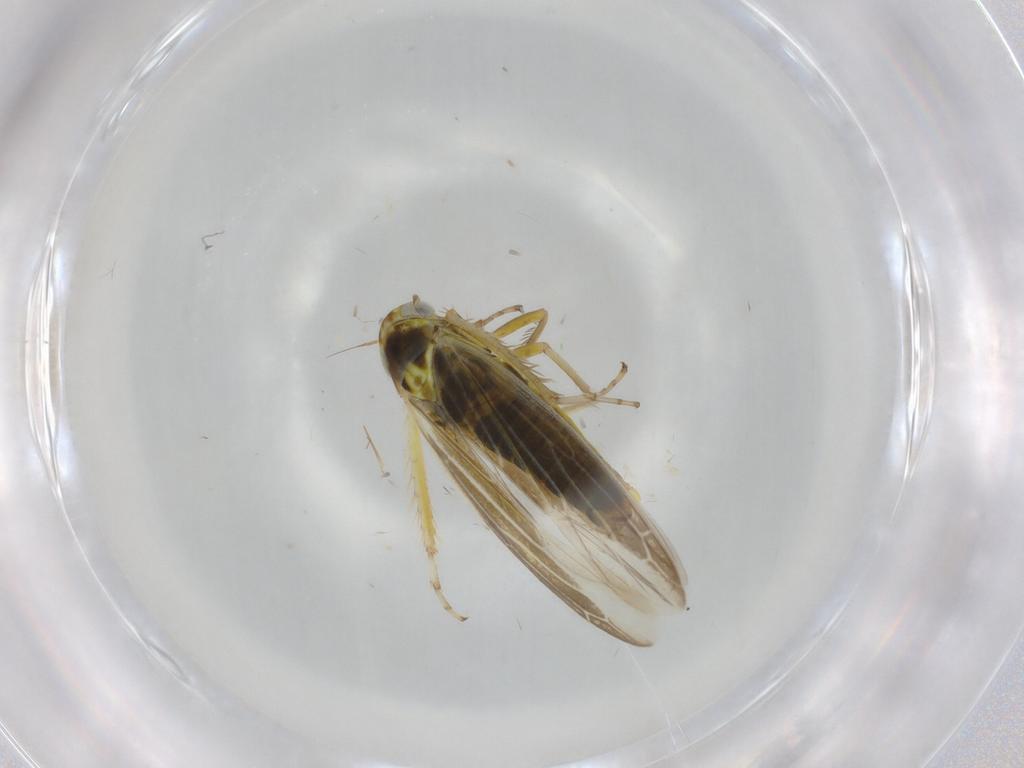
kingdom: Animalia
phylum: Arthropoda
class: Insecta
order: Hemiptera
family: Cicadellidae
